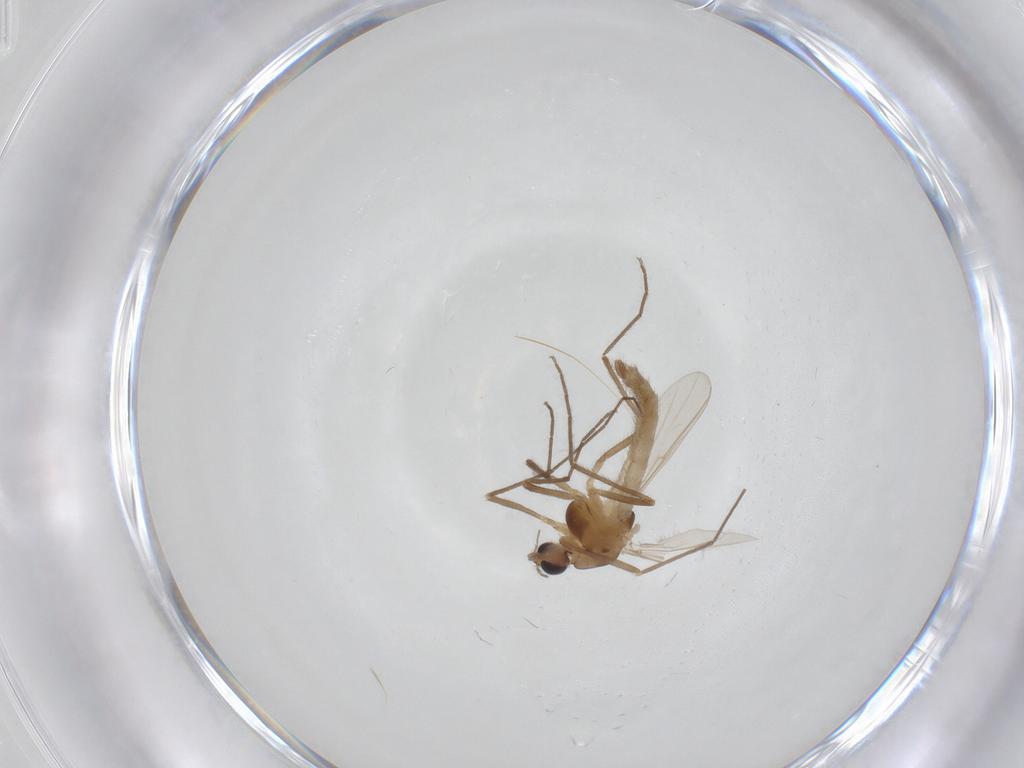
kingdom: Animalia
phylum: Arthropoda
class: Insecta
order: Diptera
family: Chironomidae
